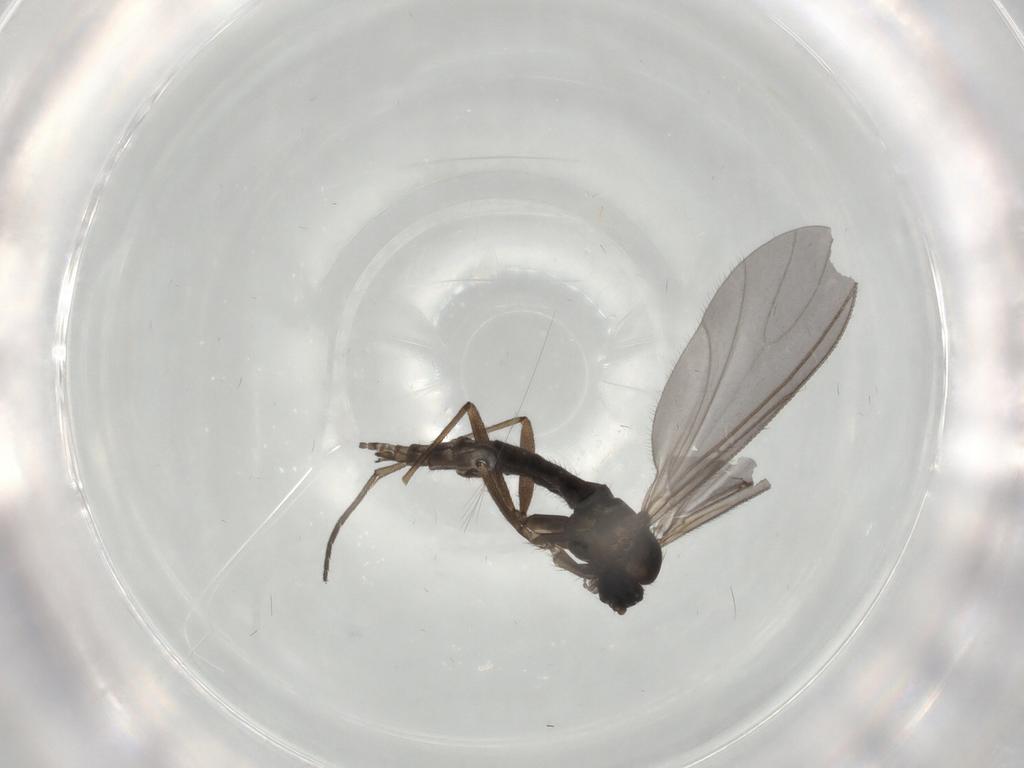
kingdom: Animalia
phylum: Arthropoda
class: Insecta
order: Diptera
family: Sciaridae
